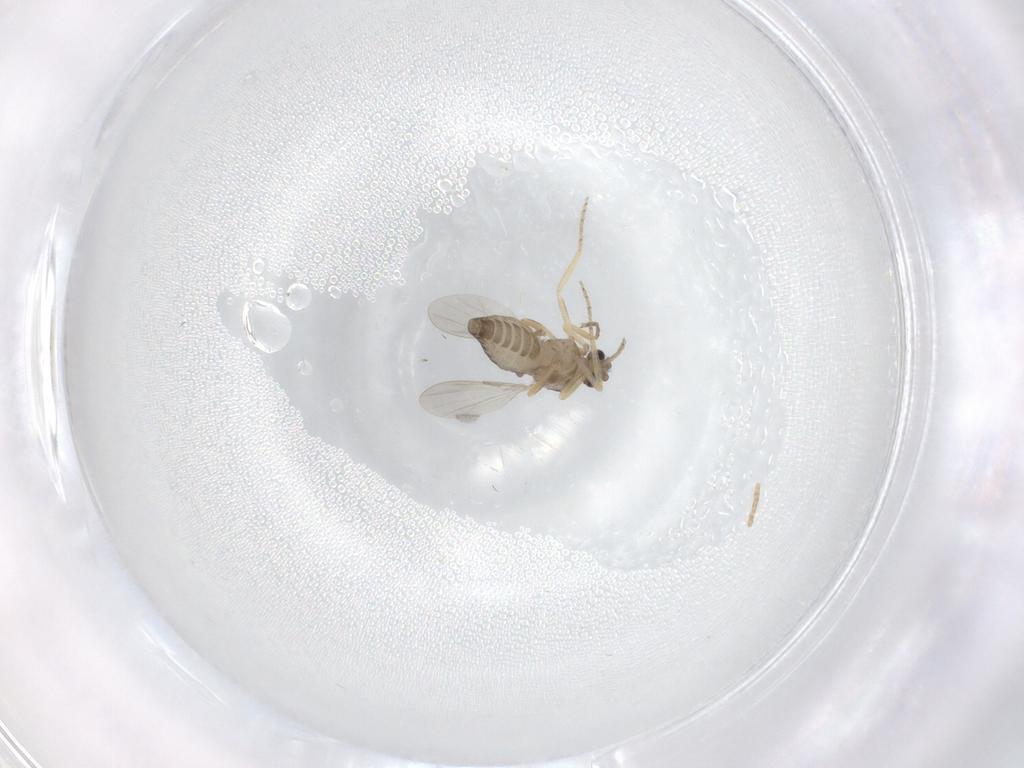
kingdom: Animalia
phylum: Arthropoda
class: Insecta
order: Diptera
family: Ceratopogonidae
